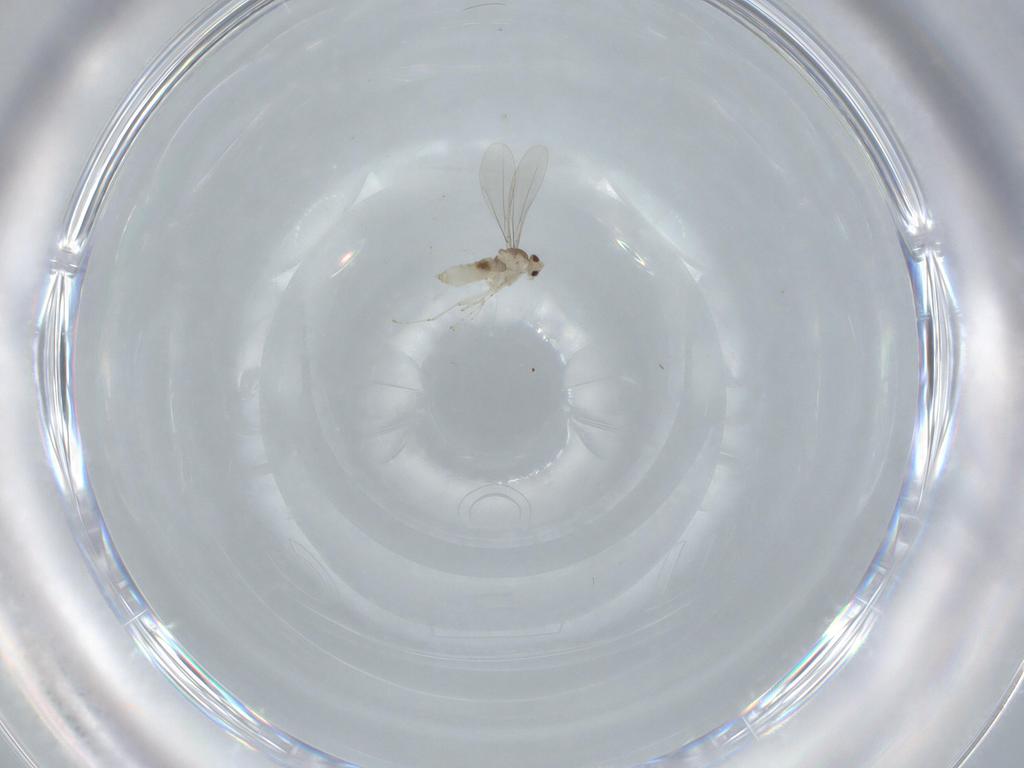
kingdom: Animalia
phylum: Arthropoda
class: Insecta
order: Diptera
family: Cecidomyiidae
